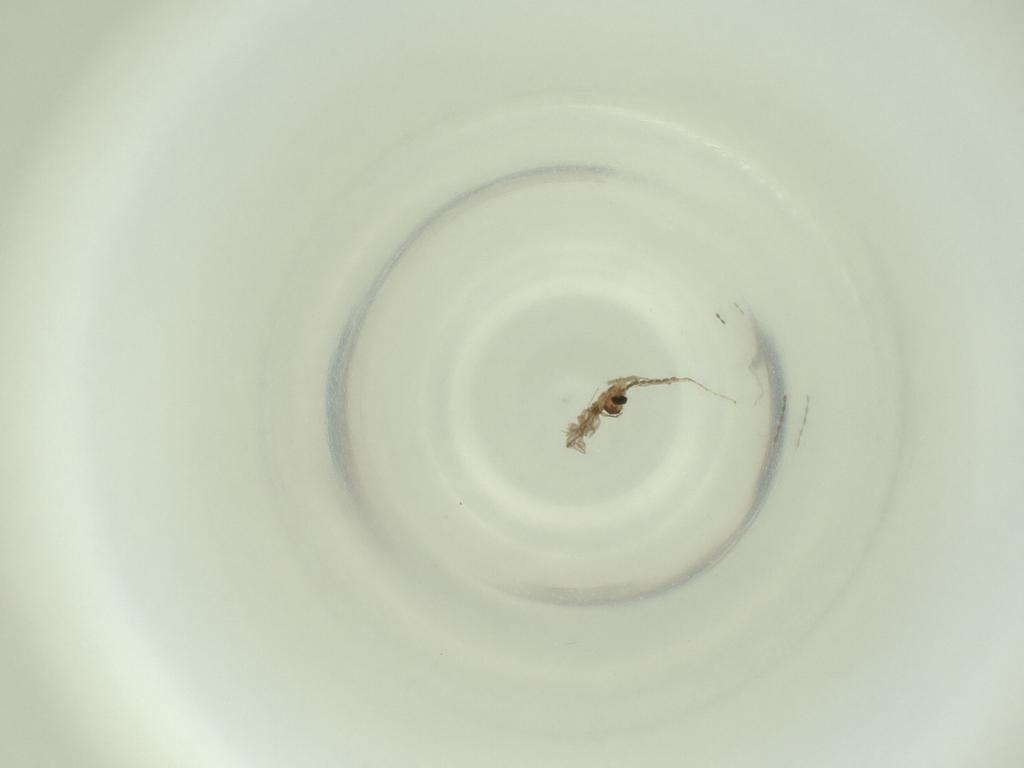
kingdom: Animalia
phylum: Arthropoda
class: Insecta
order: Diptera
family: Cecidomyiidae
